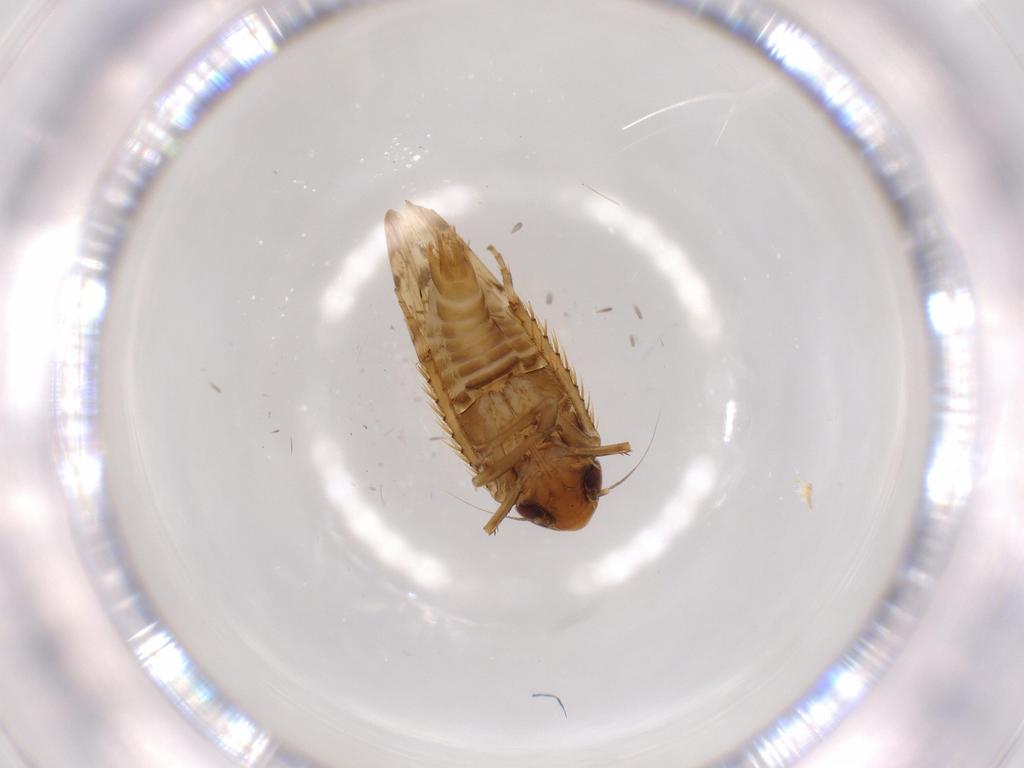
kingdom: Animalia
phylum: Arthropoda
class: Insecta
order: Hemiptera
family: Cicadellidae
